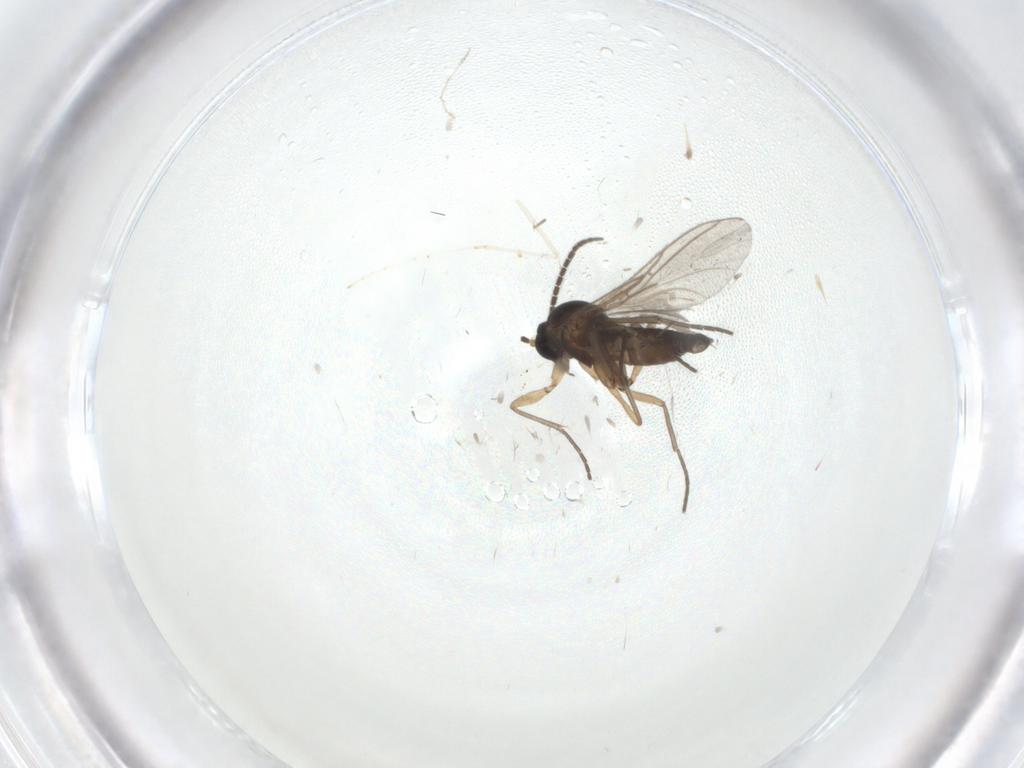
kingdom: Animalia
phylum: Arthropoda
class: Insecta
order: Diptera
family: Sciaridae
